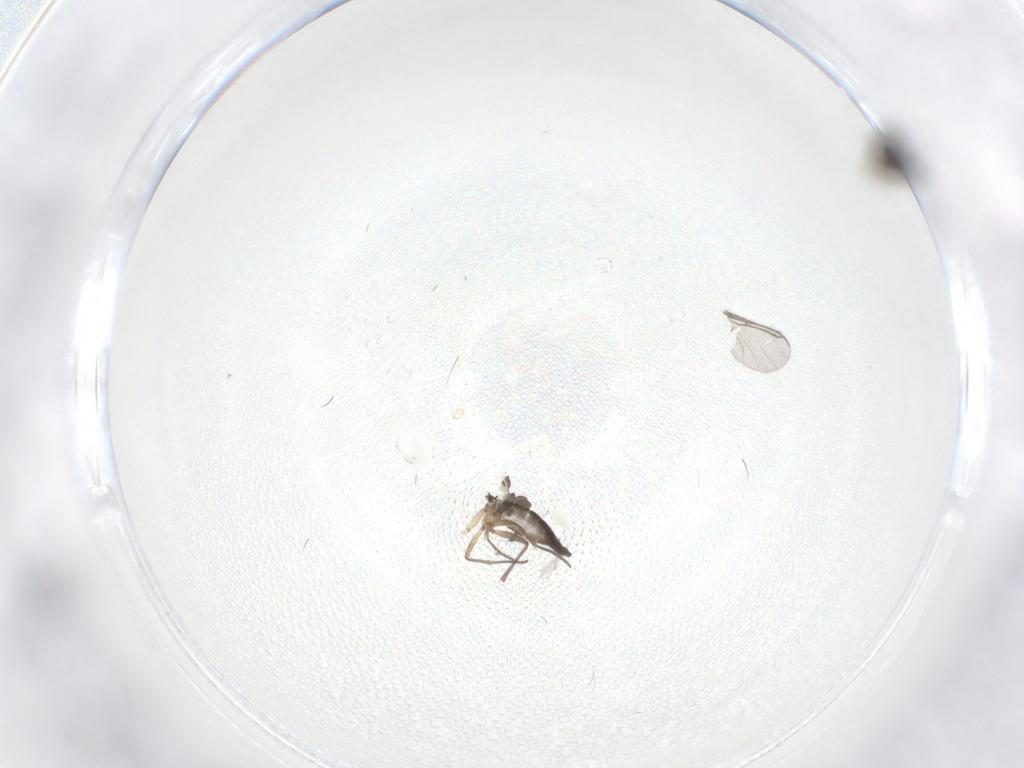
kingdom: Animalia
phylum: Arthropoda
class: Insecta
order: Diptera
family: Sciaridae
